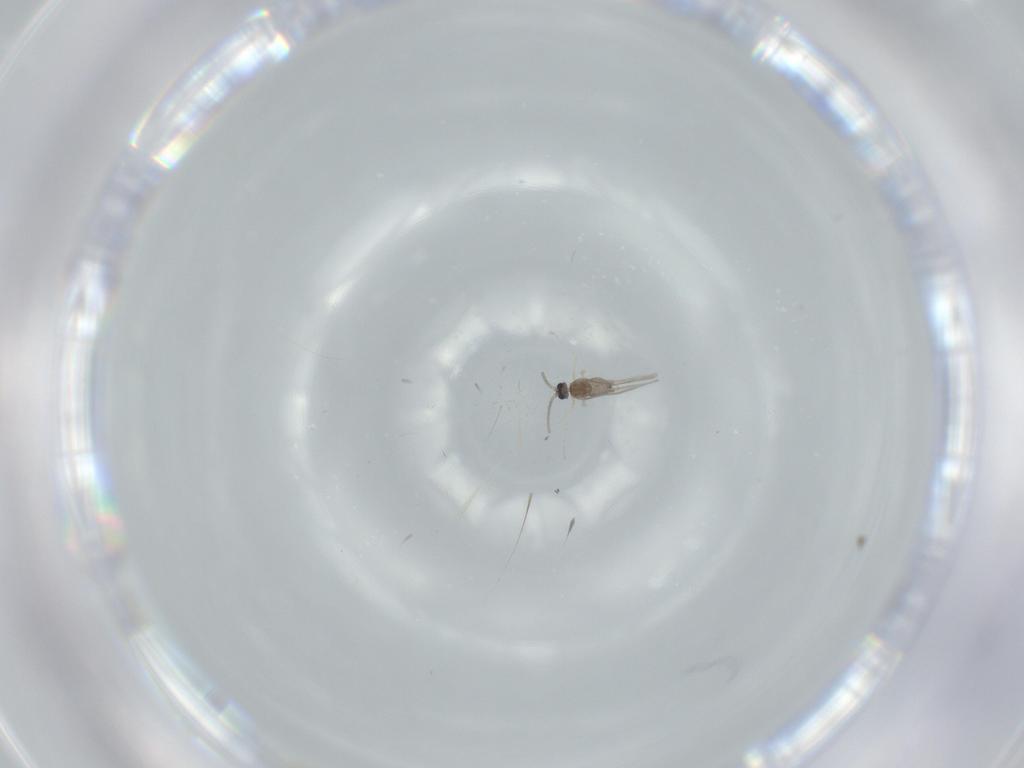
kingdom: Animalia
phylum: Arthropoda
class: Insecta
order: Diptera
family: Cecidomyiidae
